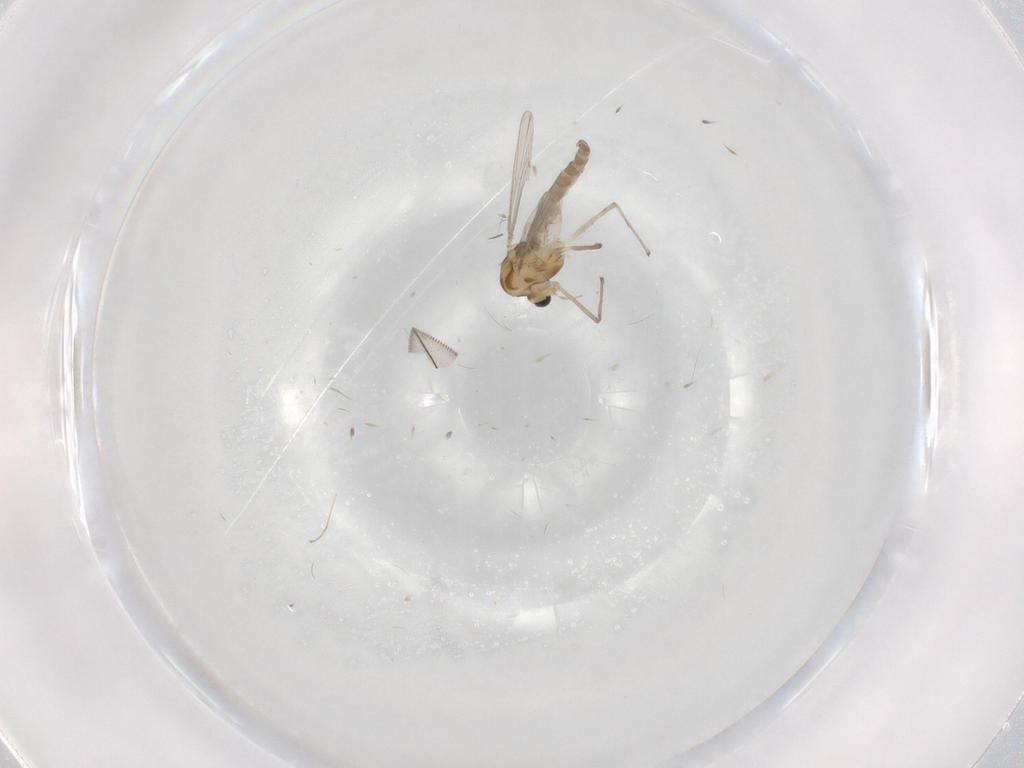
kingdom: Animalia
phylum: Arthropoda
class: Insecta
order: Diptera
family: Chironomidae
